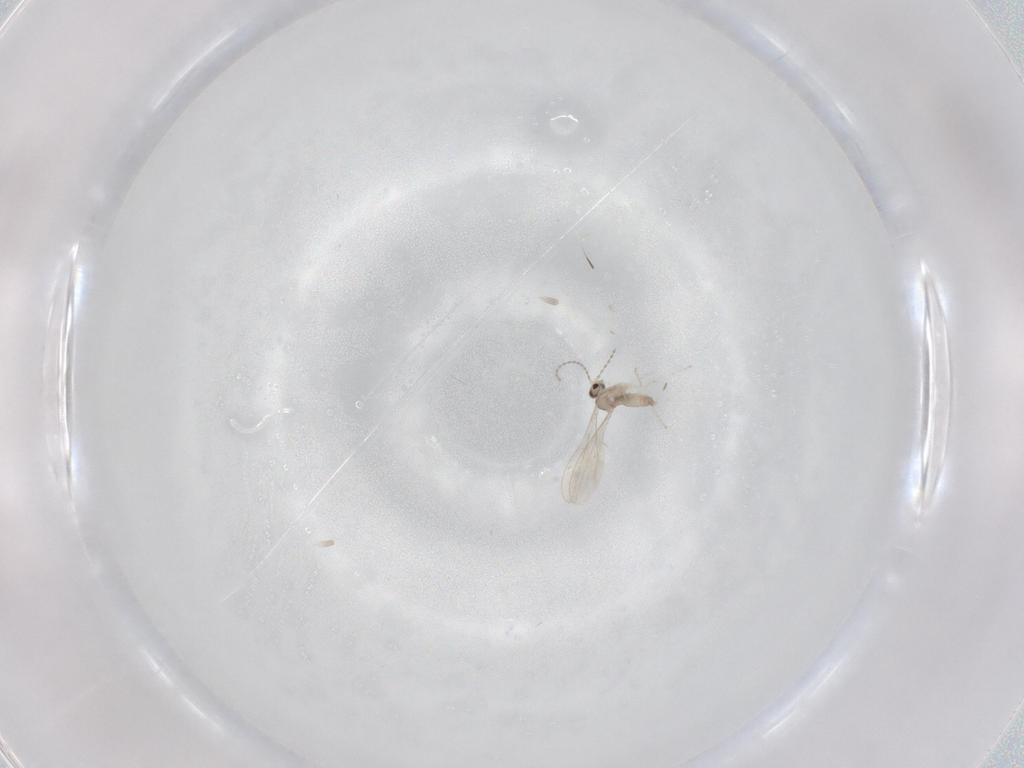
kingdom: Animalia
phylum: Arthropoda
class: Insecta
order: Diptera
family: Cecidomyiidae
